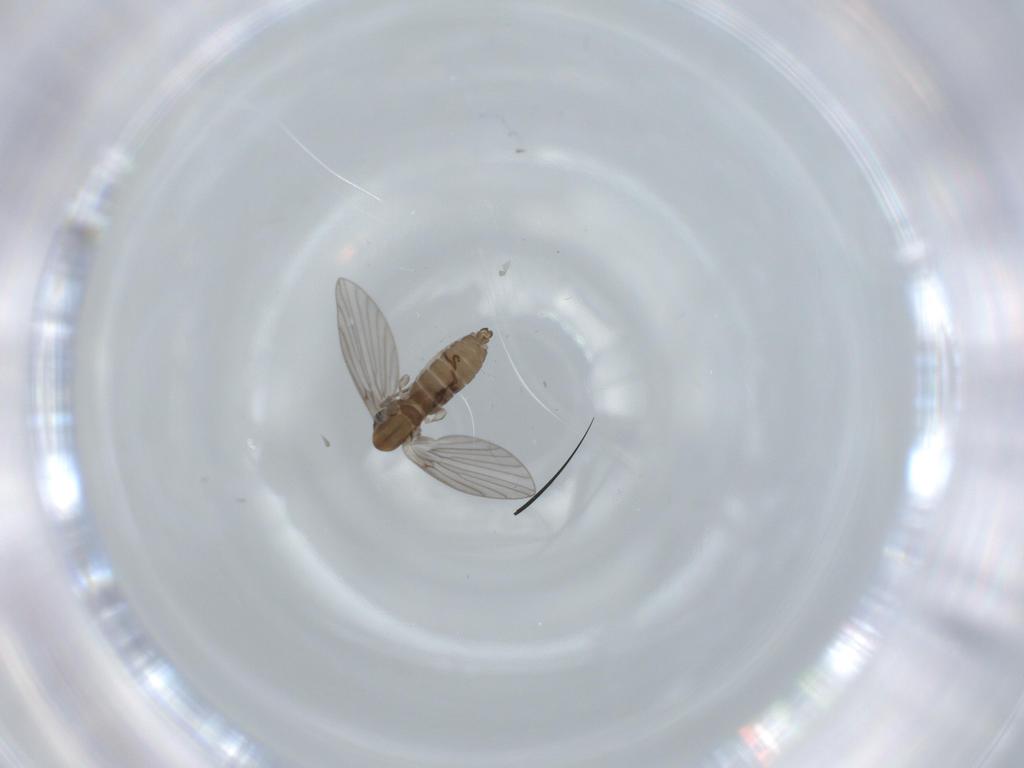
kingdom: Animalia
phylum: Arthropoda
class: Insecta
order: Diptera
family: Psychodidae
